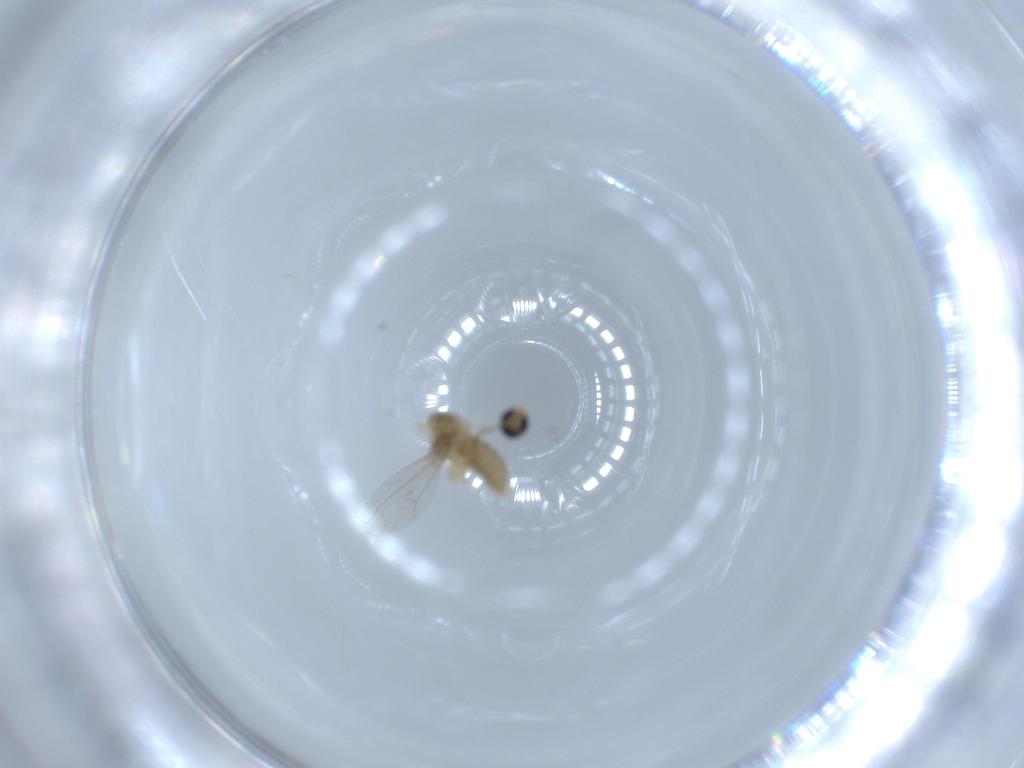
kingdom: Animalia
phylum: Arthropoda
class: Insecta
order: Diptera
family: Cecidomyiidae
